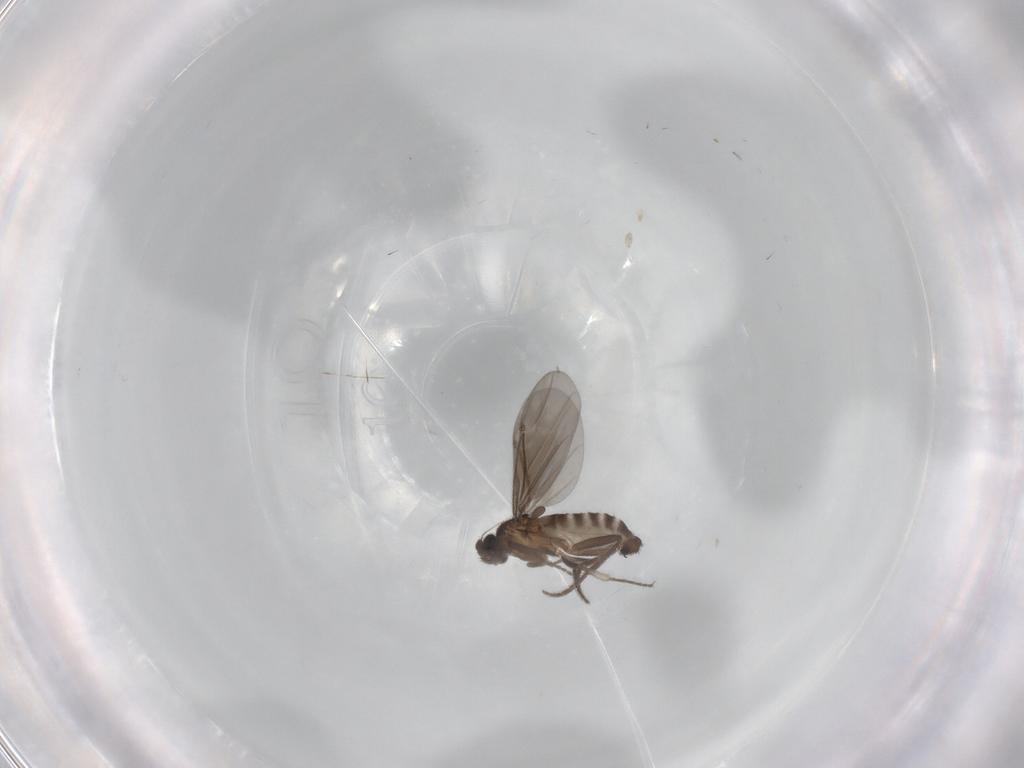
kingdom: Animalia
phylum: Arthropoda
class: Insecta
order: Diptera
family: Phoridae
